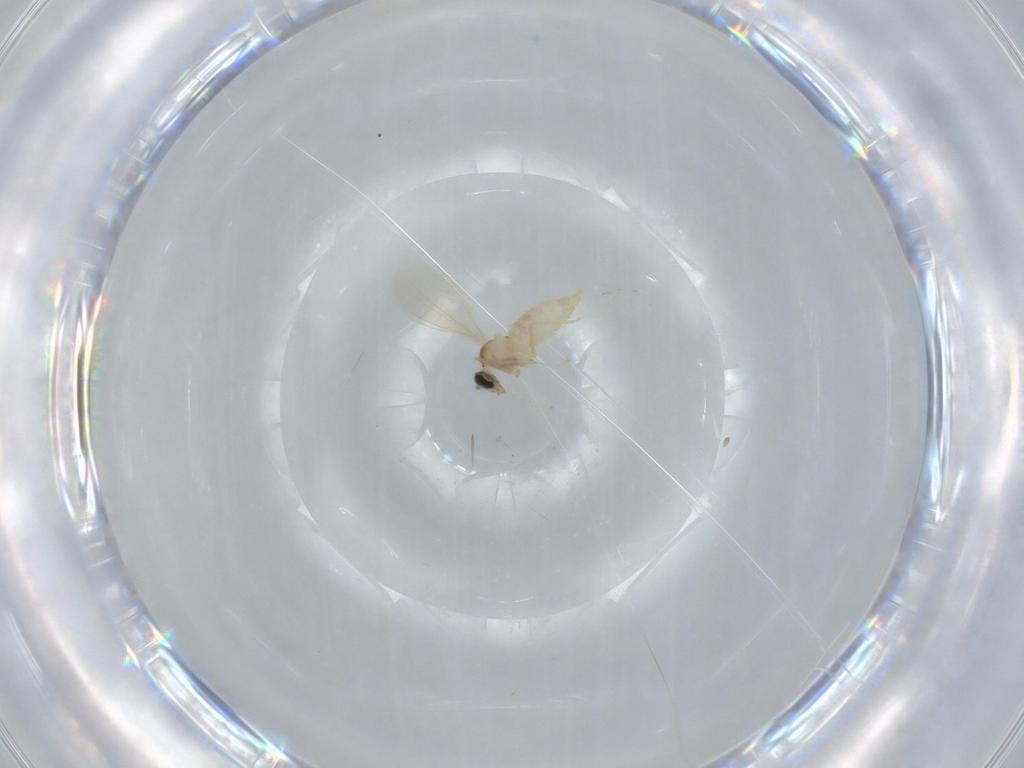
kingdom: Animalia
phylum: Arthropoda
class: Insecta
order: Diptera
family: Cecidomyiidae
